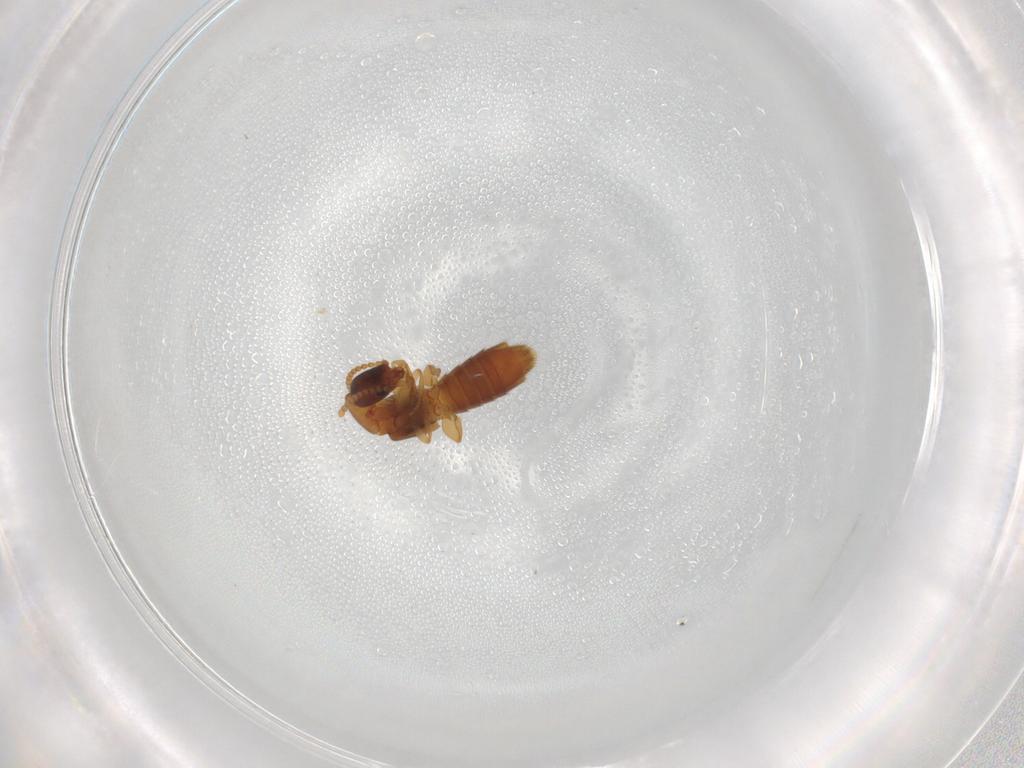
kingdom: Animalia
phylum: Arthropoda
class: Insecta
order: Coleoptera
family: Staphylinidae
